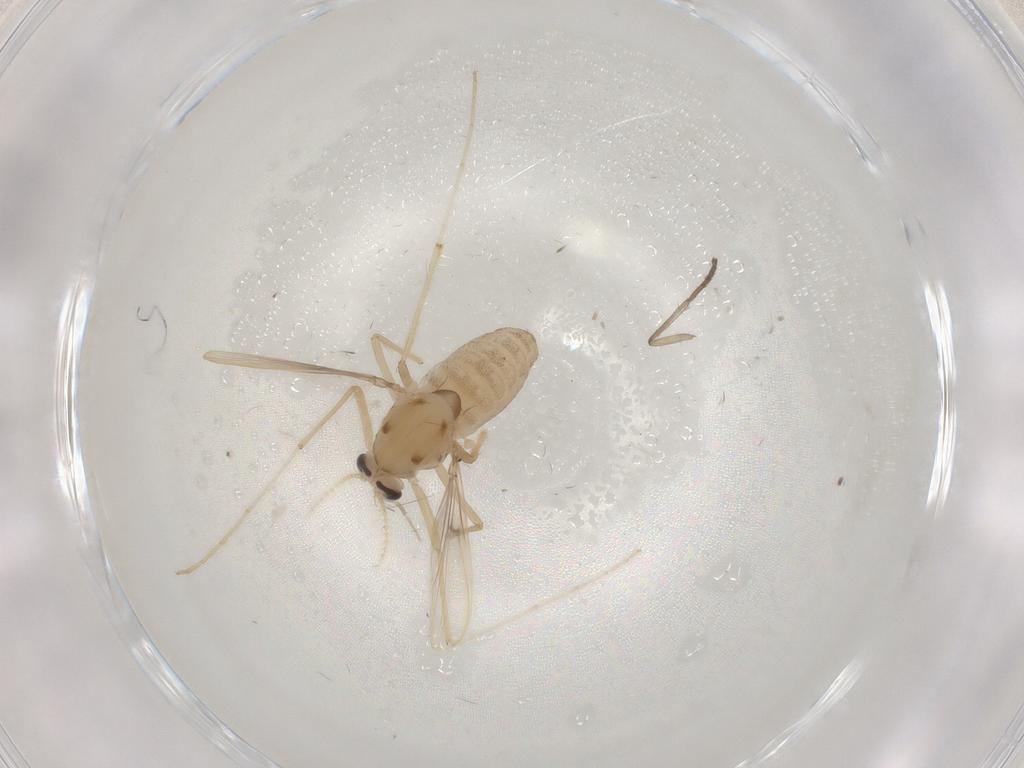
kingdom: Animalia
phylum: Arthropoda
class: Insecta
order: Diptera
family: Chironomidae
